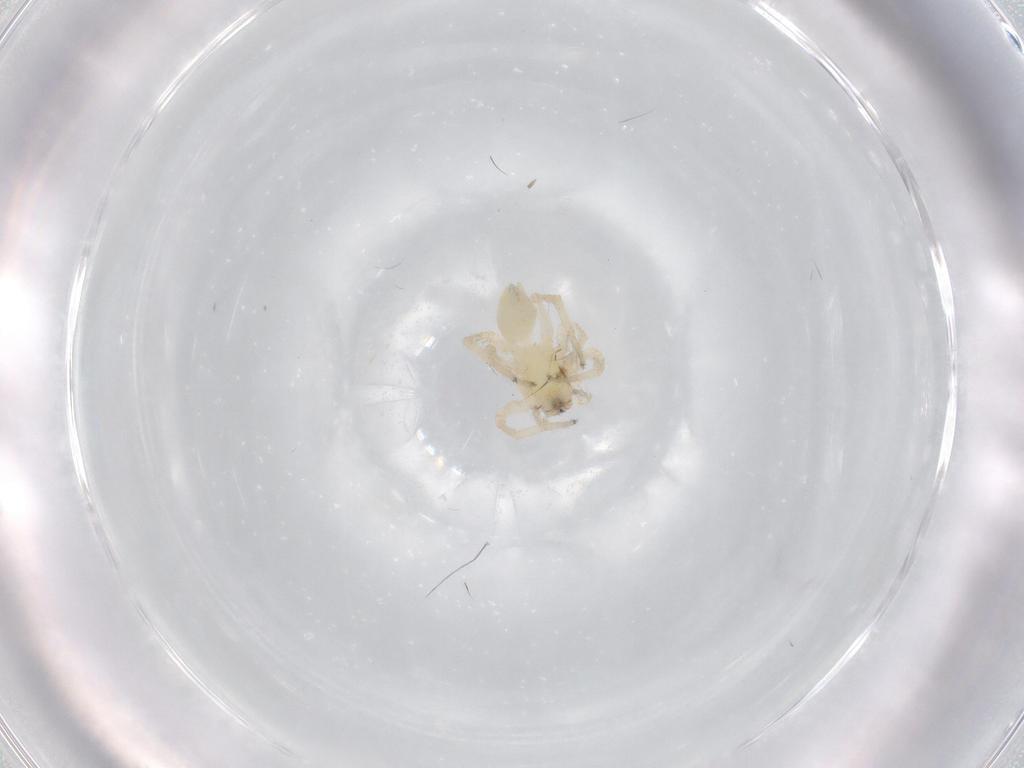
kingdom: Animalia
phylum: Arthropoda
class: Arachnida
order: Araneae
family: Anyphaenidae
